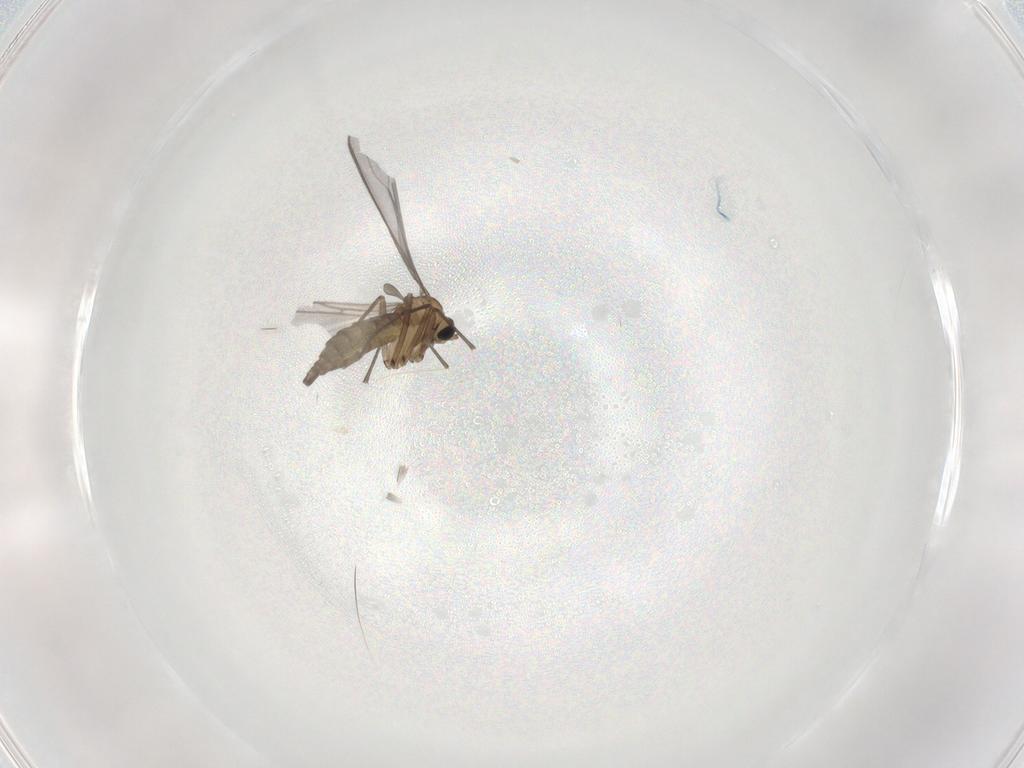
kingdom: Animalia
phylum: Arthropoda
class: Insecta
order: Diptera
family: Sciaridae
